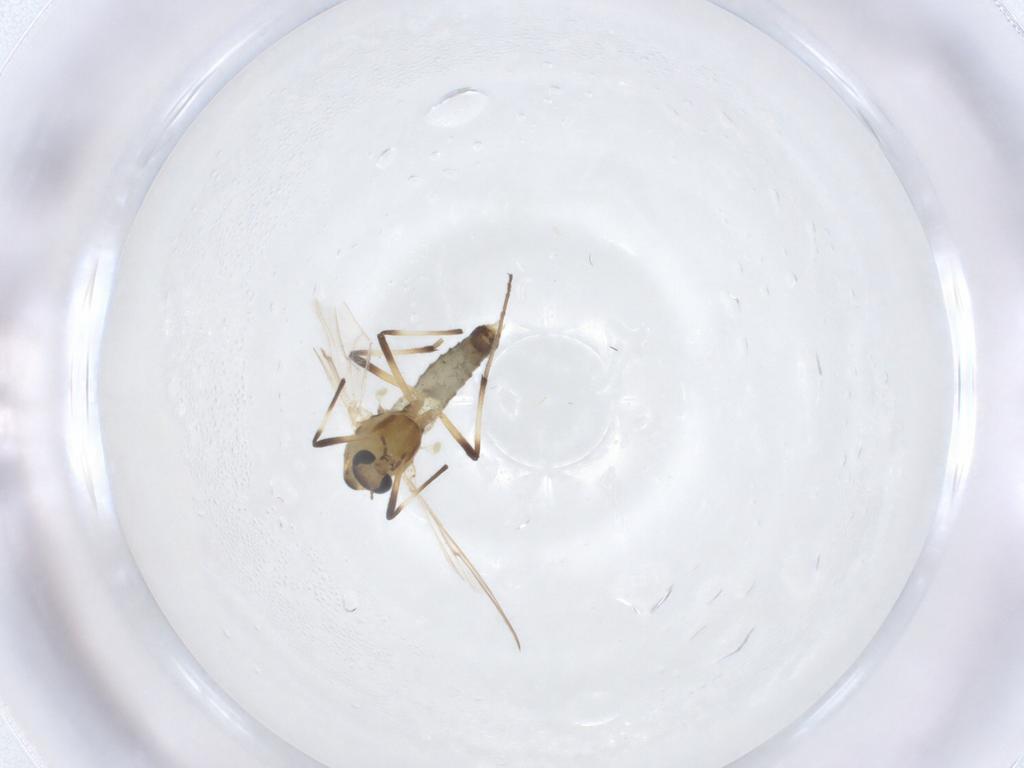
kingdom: Animalia
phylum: Arthropoda
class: Insecta
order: Diptera
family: Chironomidae
